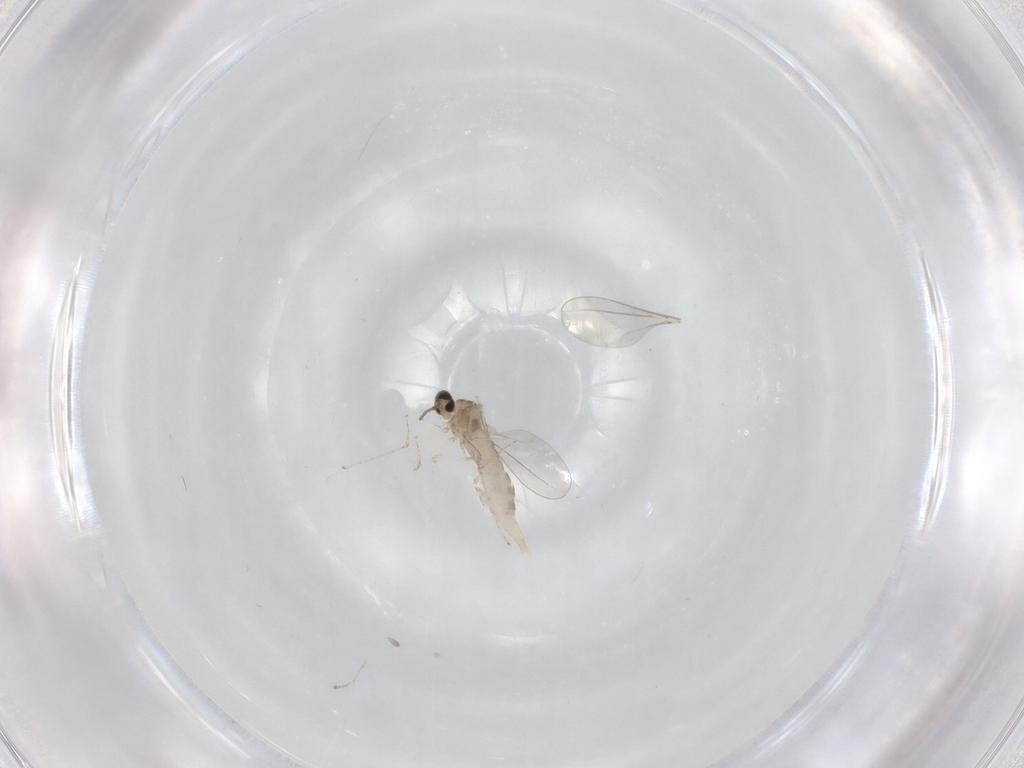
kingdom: Animalia
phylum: Arthropoda
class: Insecta
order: Diptera
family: Cecidomyiidae
